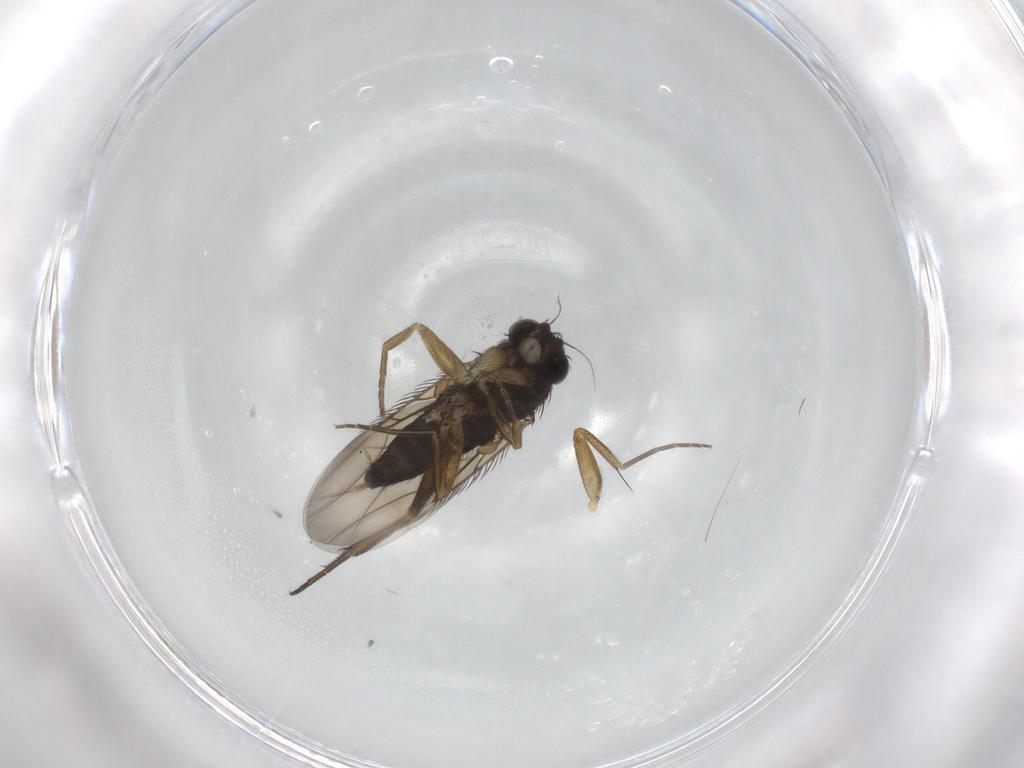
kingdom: Animalia
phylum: Arthropoda
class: Insecta
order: Diptera
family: Phoridae
